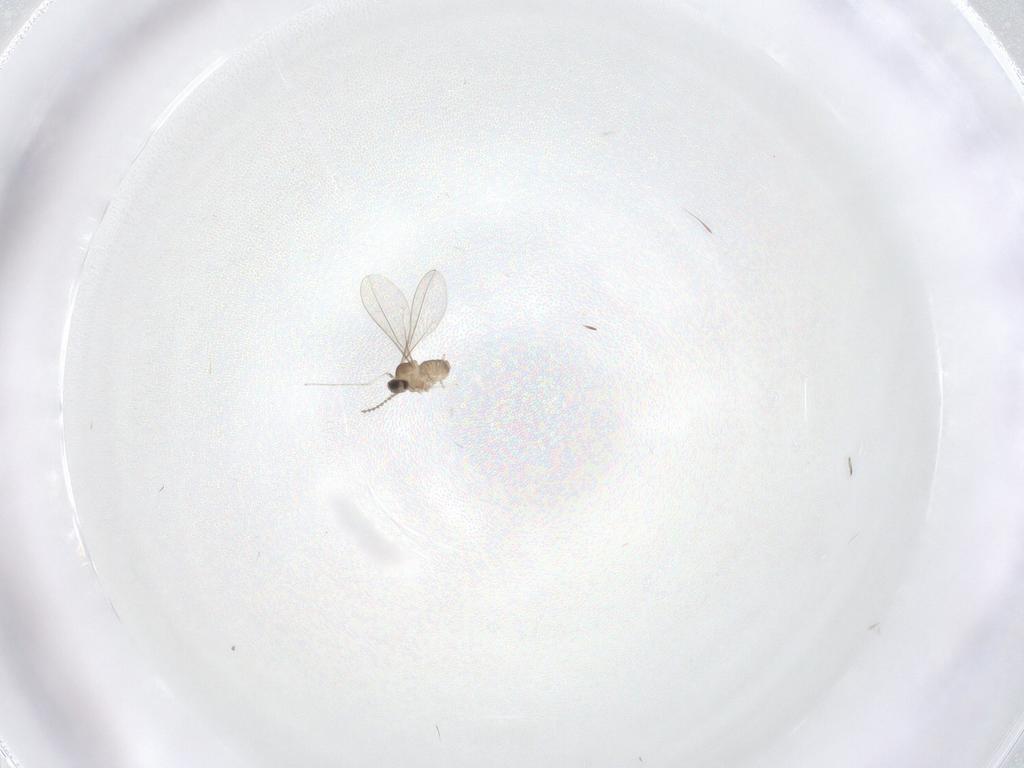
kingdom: Animalia
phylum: Arthropoda
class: Insecta
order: Diptera
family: Cecidomyiidae
